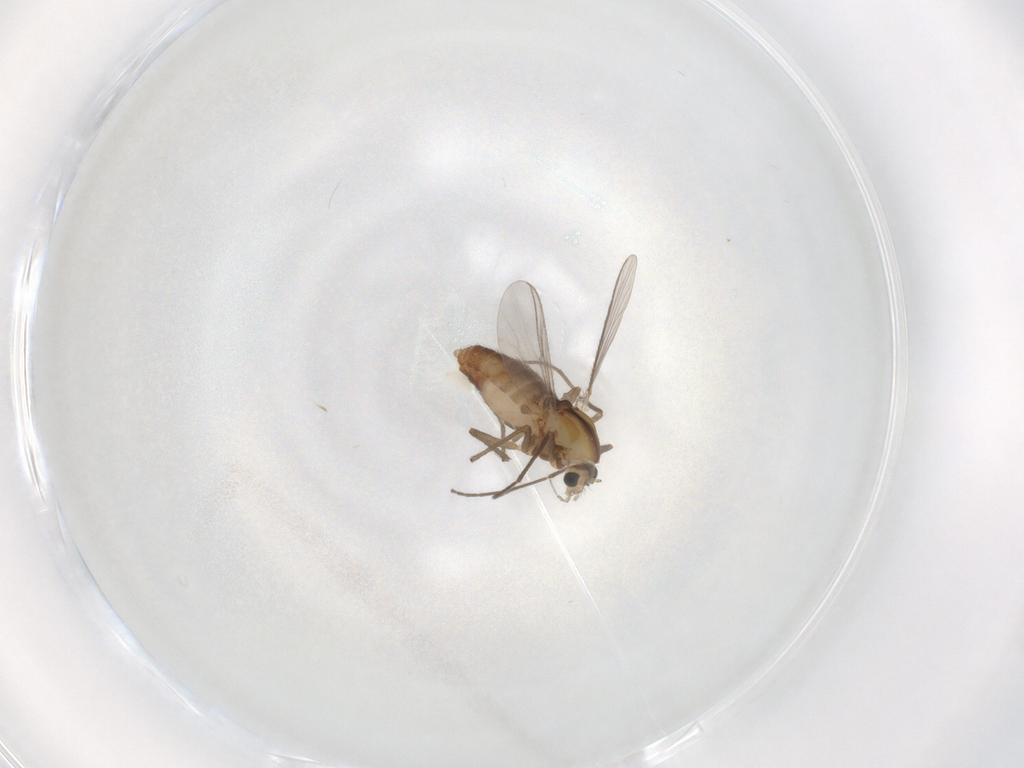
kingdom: Animalia
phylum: Arthropoda
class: Insecta
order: Diptera
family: Chironomidae
